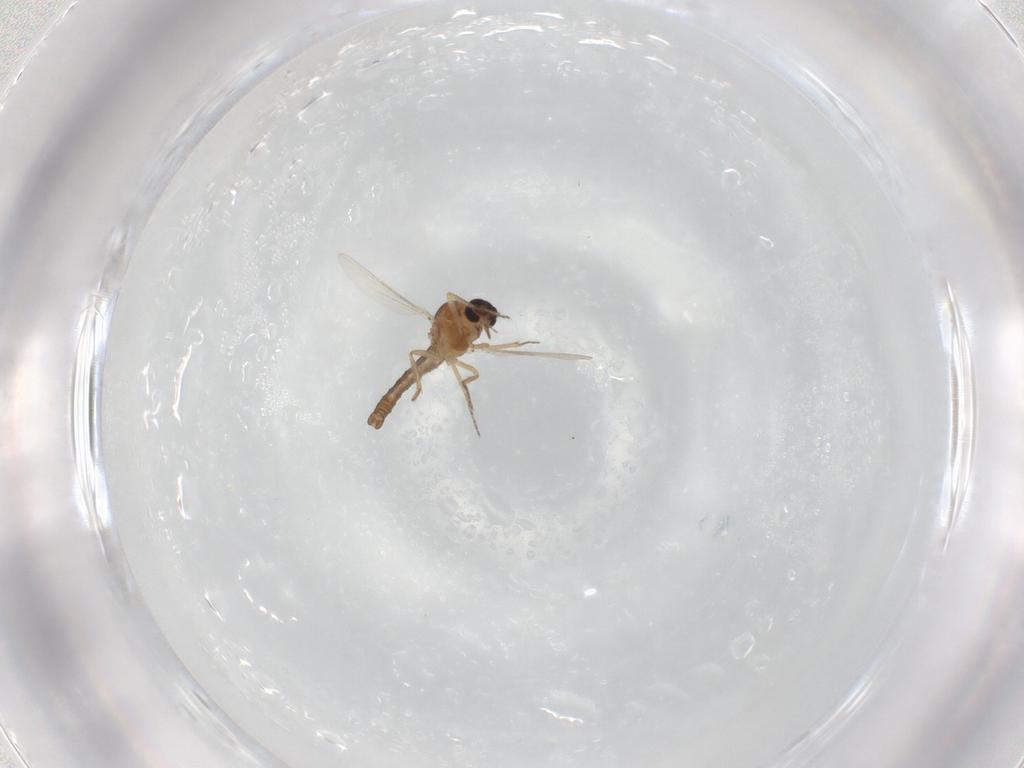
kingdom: Animalia
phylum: Arthropoda
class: Insecta
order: Diptera
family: Ceratopogonidae
